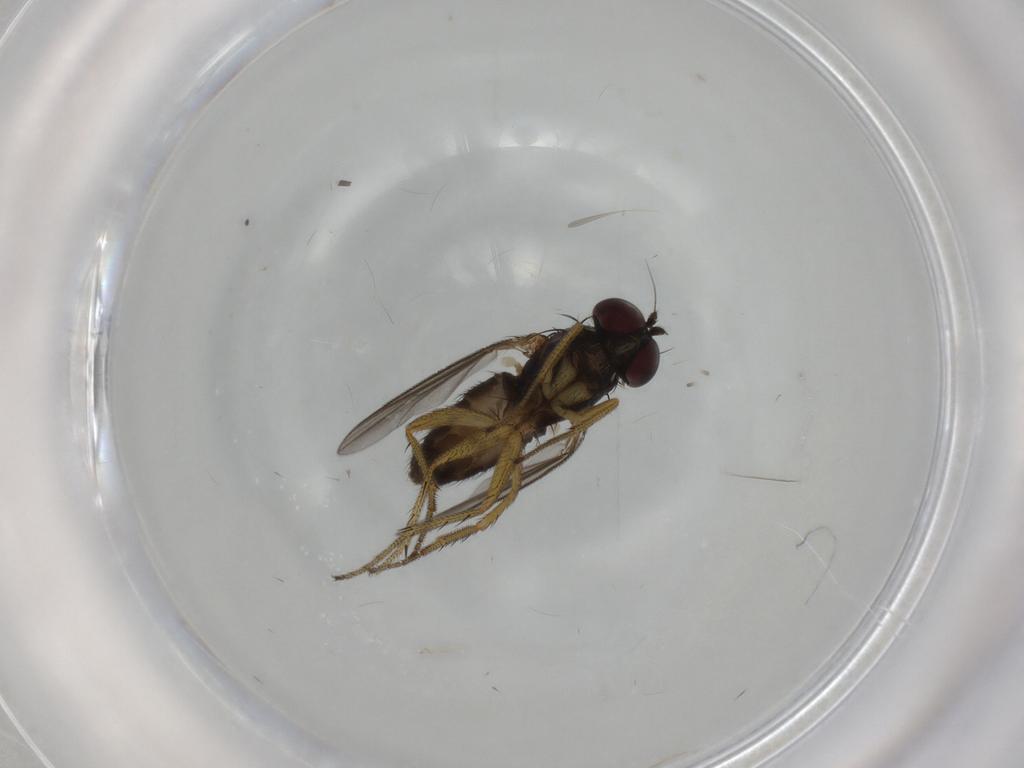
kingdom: Animalia
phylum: Arthropoda
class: Insecta
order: Diptera
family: Dolichopodidae
